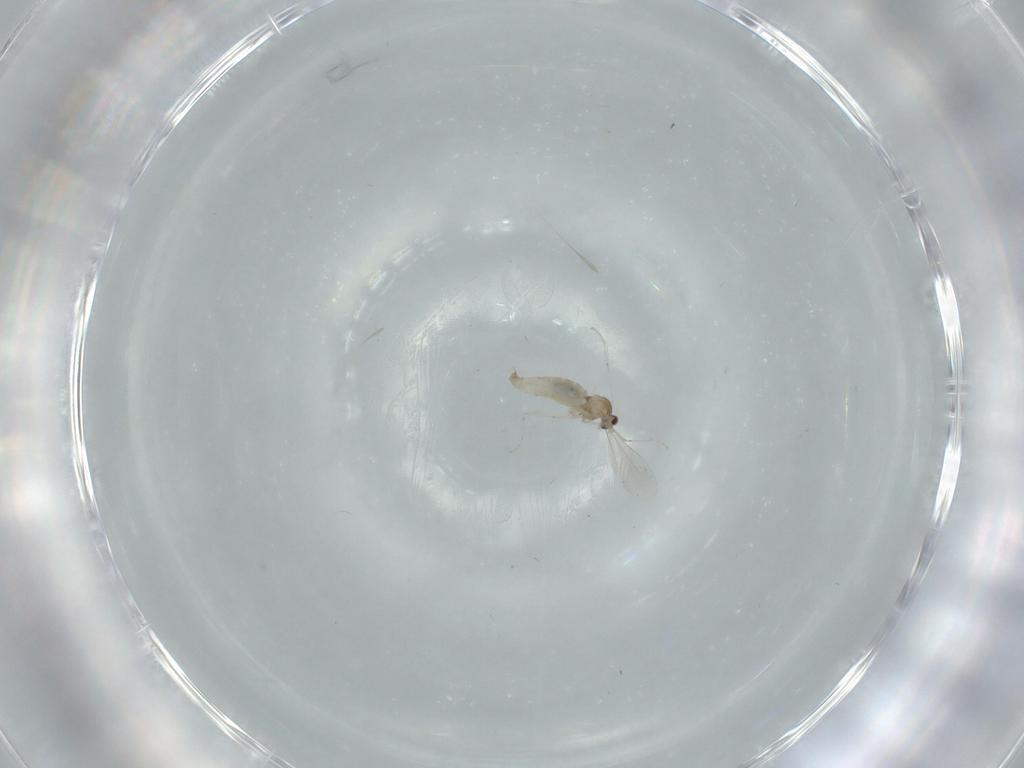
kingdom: Animalia
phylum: Arthropoda
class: Insecta
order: Diptera
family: Cecidomyiidae
